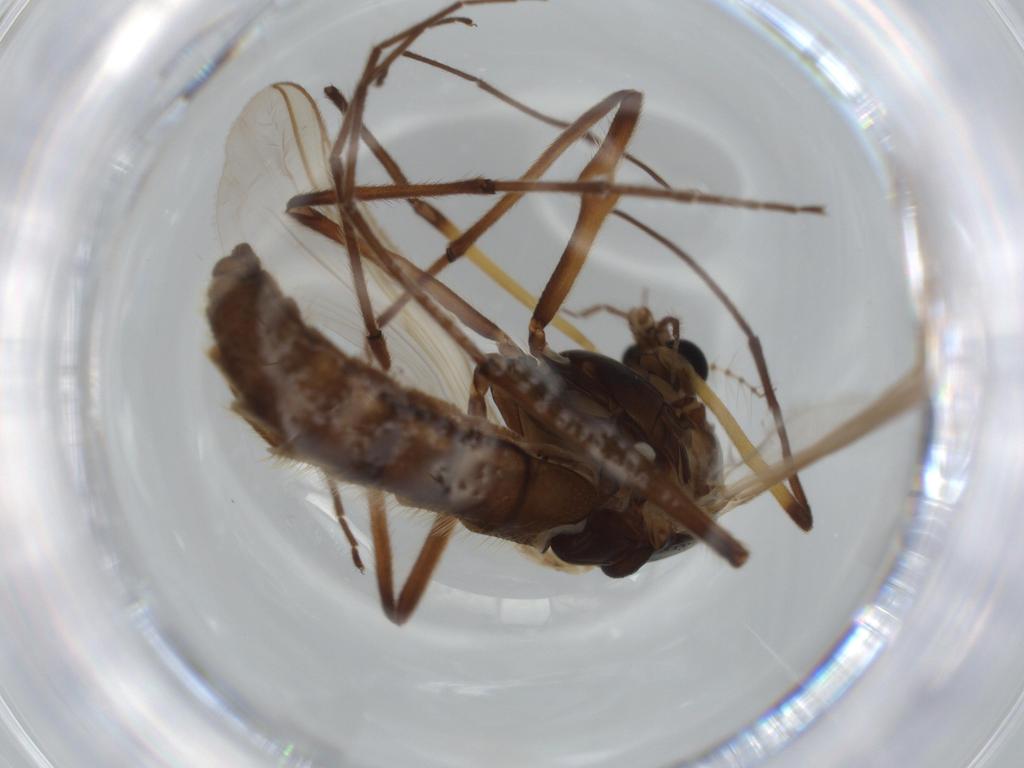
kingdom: Animalia
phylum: Arthropoda
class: Insecta
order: Diptera
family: Chironomidae
